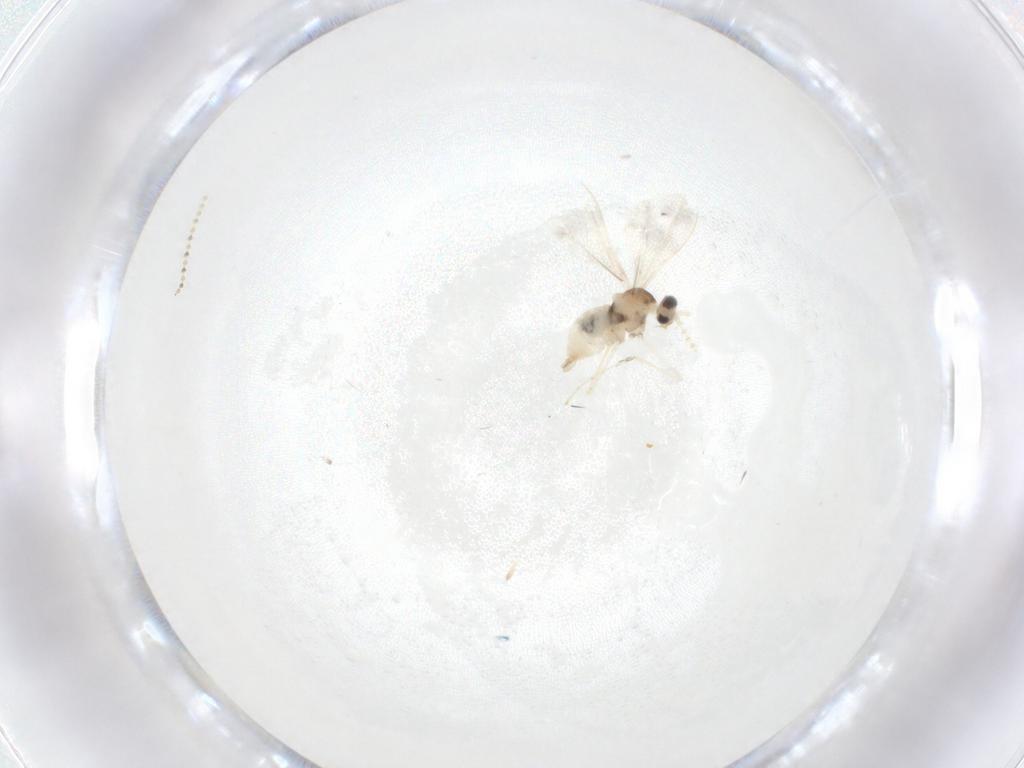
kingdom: Animalia
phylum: Arthropoda
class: Insecta
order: Diptera
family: Cecidomyiidae
